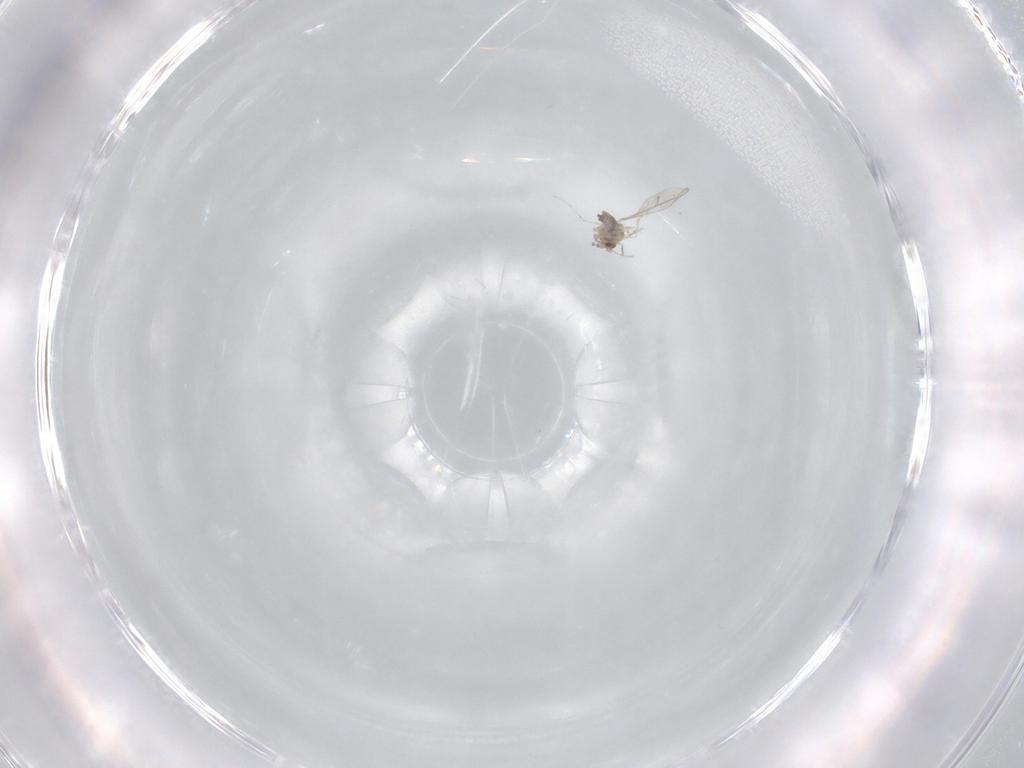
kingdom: Animalia
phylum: Arthropoda
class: Insecta
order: Diptera
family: Cecidomyiidae
